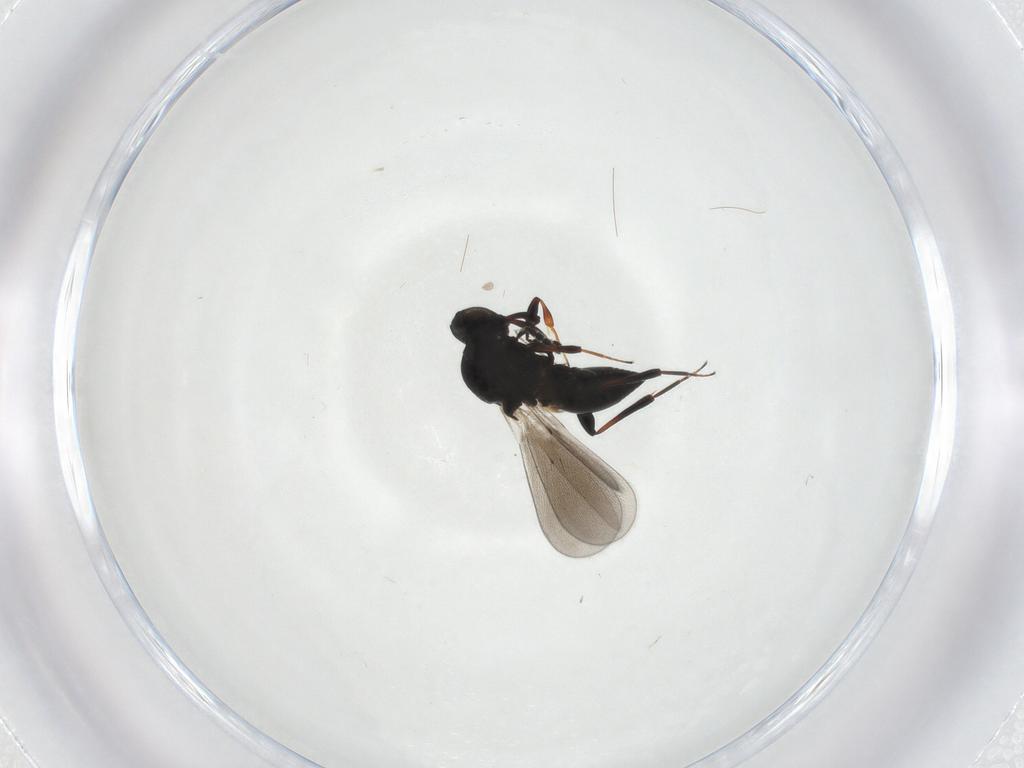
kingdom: Animalia
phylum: Arthropoda
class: Insecta
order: Hymenoptera
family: Platygastridae
